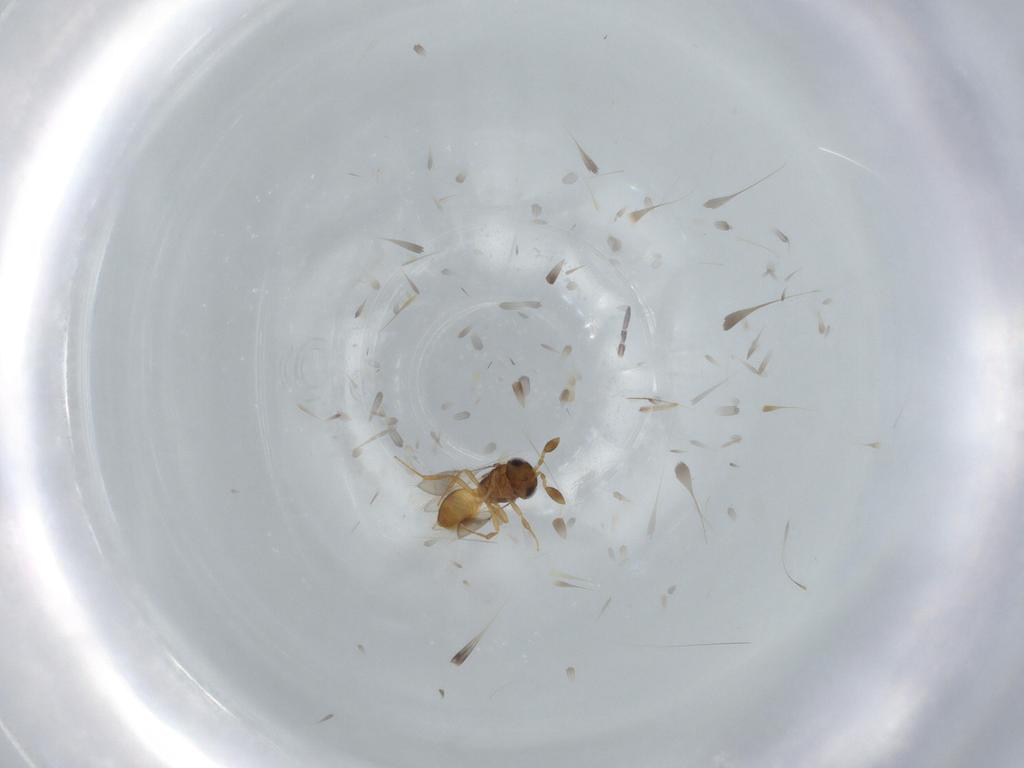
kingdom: Animalia
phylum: Arthropoda
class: Insecta
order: Hymenoptera
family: Scelionidae
